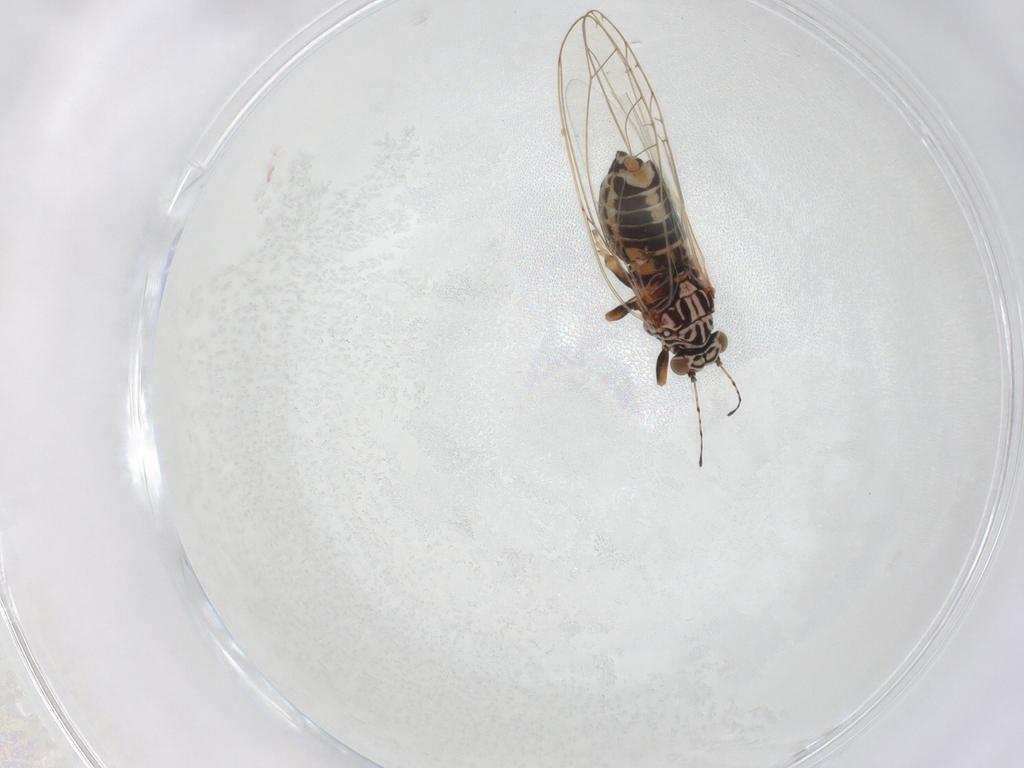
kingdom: Animalia
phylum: Arthropoda
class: Insecta
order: Hemiptera
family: Triozidae
